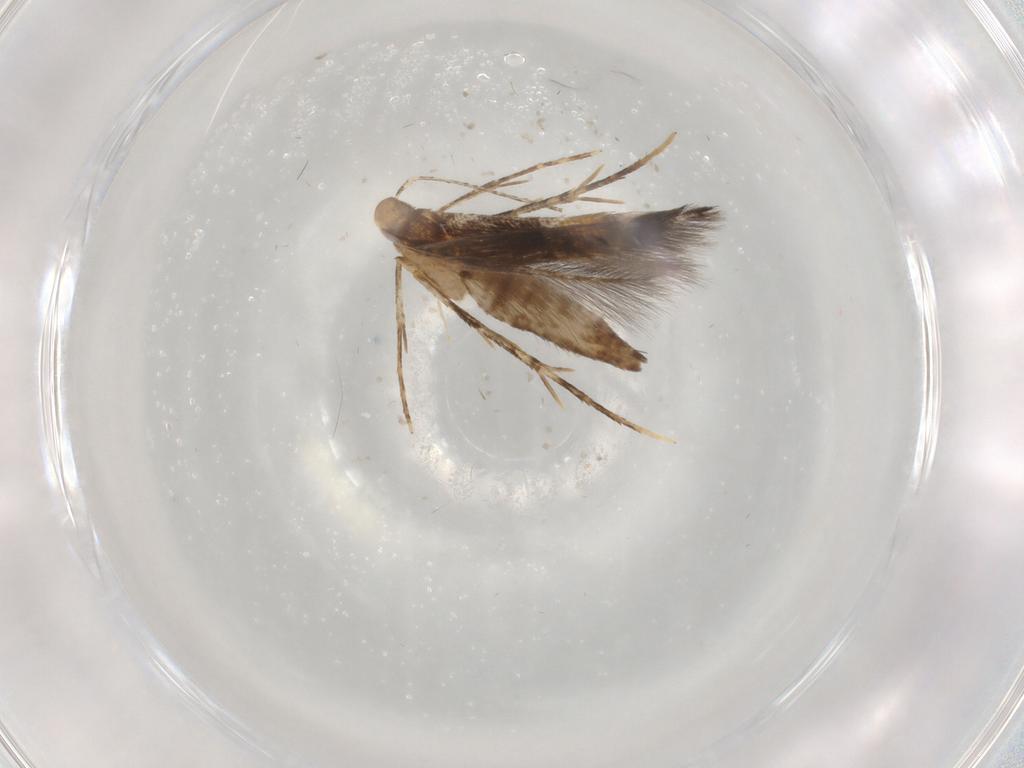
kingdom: Animalia
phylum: Arthropoda
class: Insecta
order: Lepidoptera
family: Cosmopterigidae
